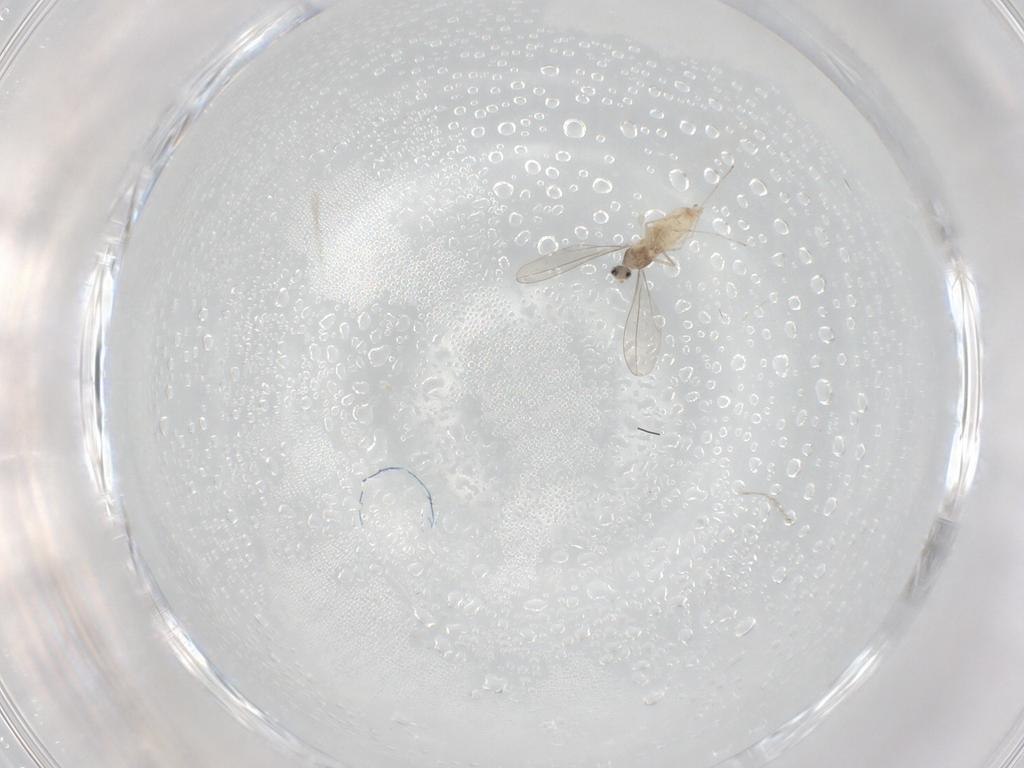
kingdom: Animalia
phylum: Arthropoda
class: Insecta
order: Diptera
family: Cecidomyiidae
